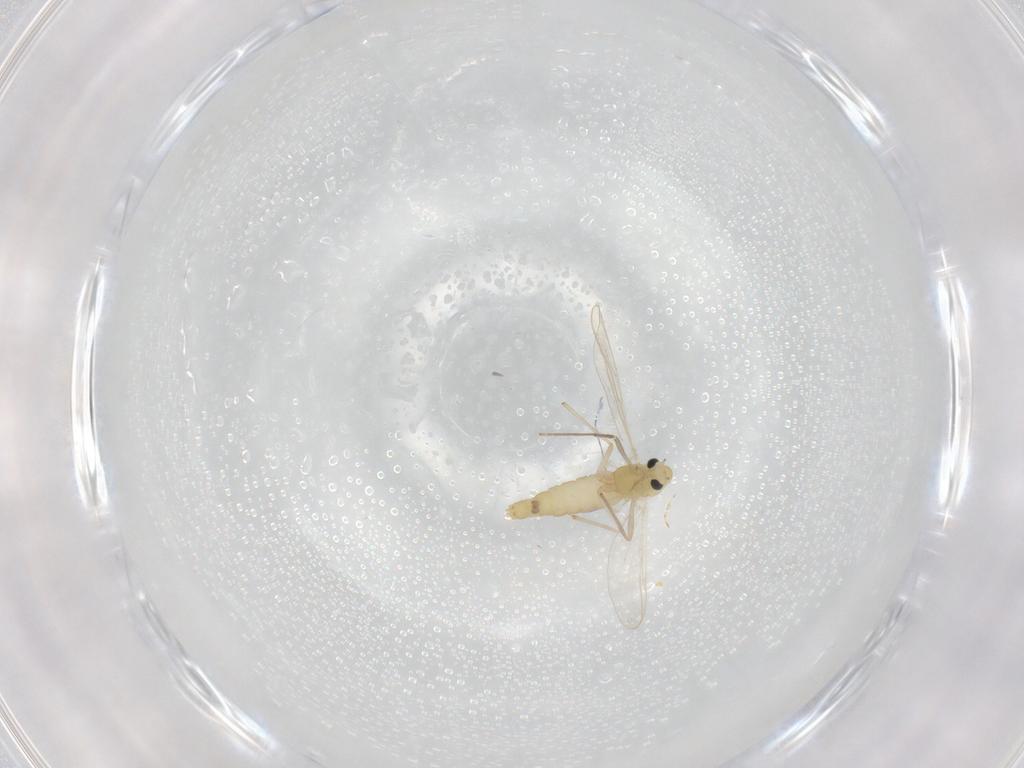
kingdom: Animalia
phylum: Arthropoda
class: Insecta
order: Diptera
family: Chironomidae
